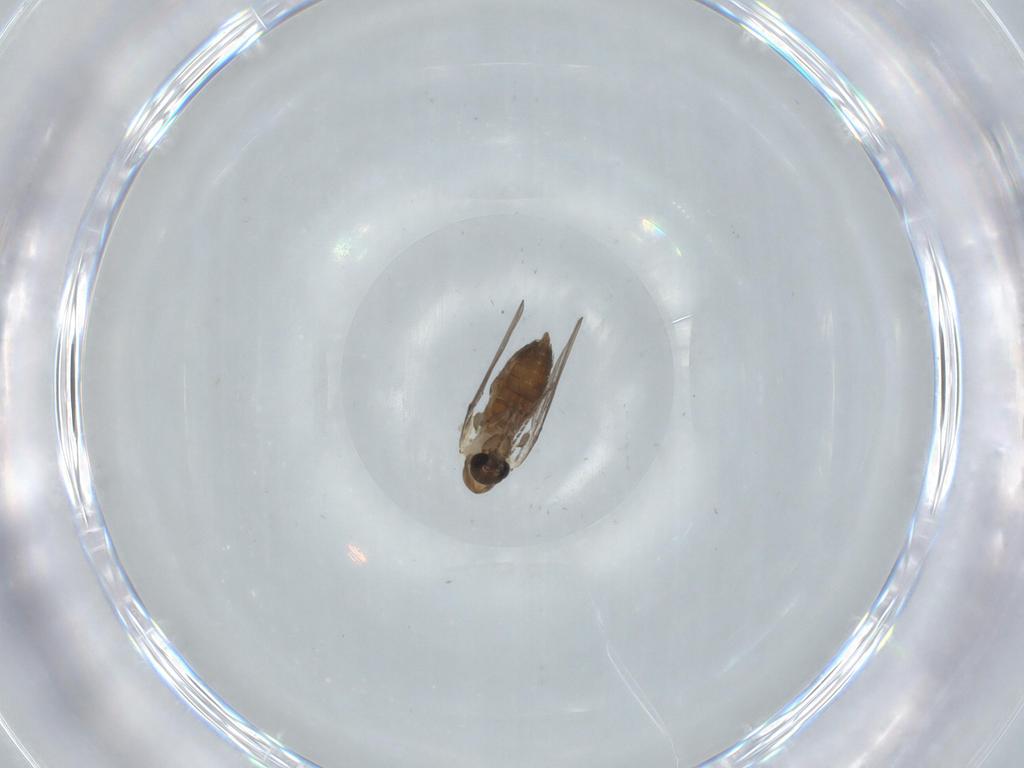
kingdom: Animalia
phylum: Arthropoda
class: Insecta
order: Diptera
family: Psychodidae
